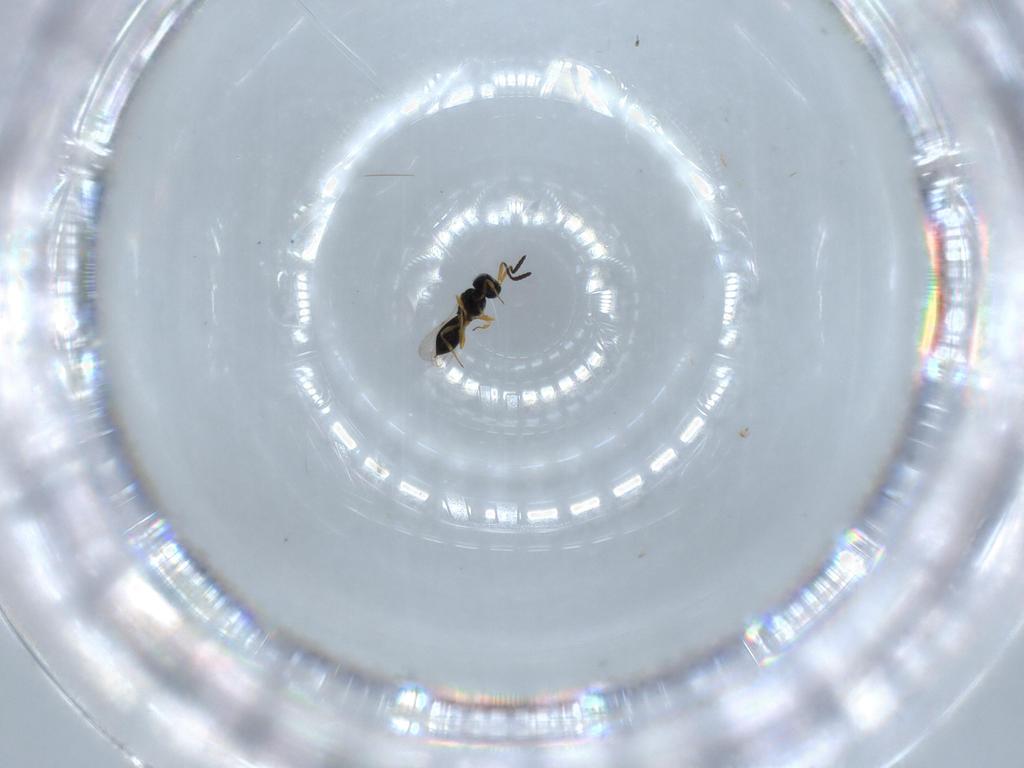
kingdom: Animalia
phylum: Arthropoda
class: Insecta
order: Hymenoptera
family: Scelionidae
